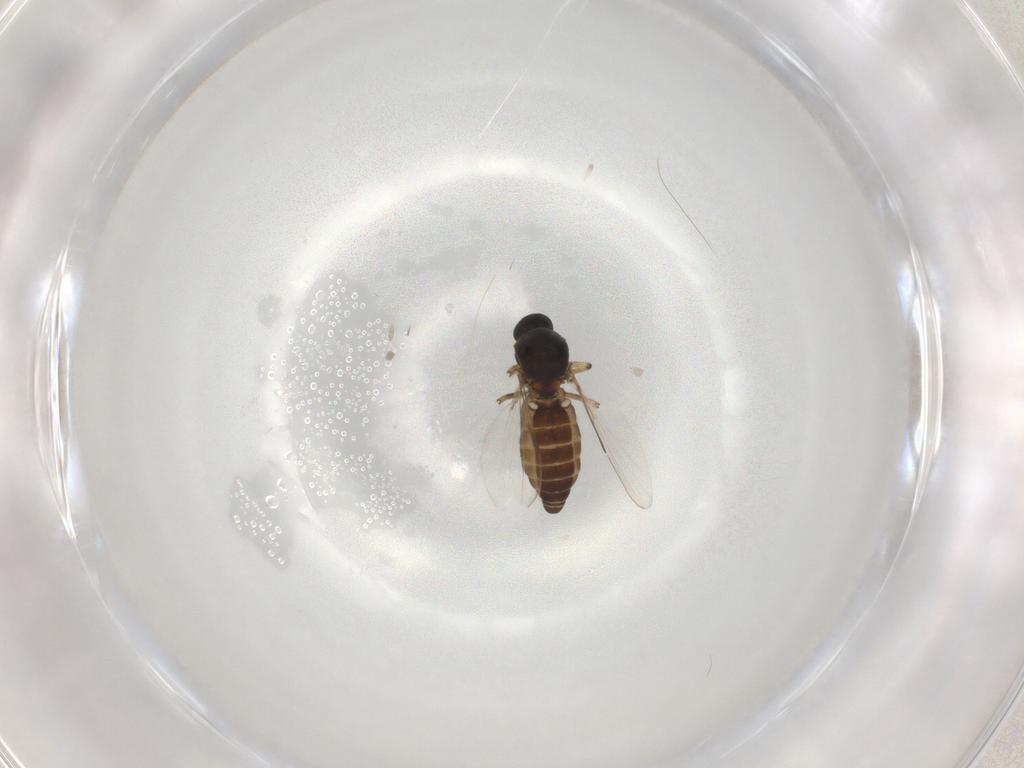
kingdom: Animalia
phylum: Arthropoda
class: Insecta
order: Diptera
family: Ceratopogonidae
